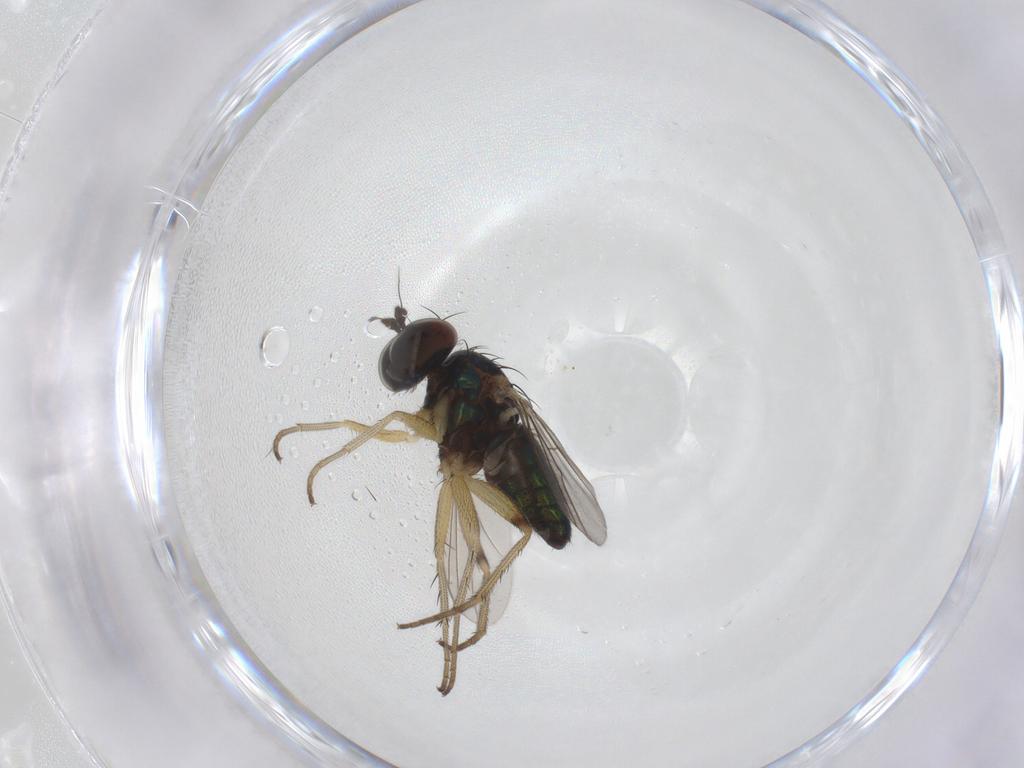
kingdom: Animalia
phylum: Arthropoda
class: Insecta
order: Diptera
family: Dolichopodidae
